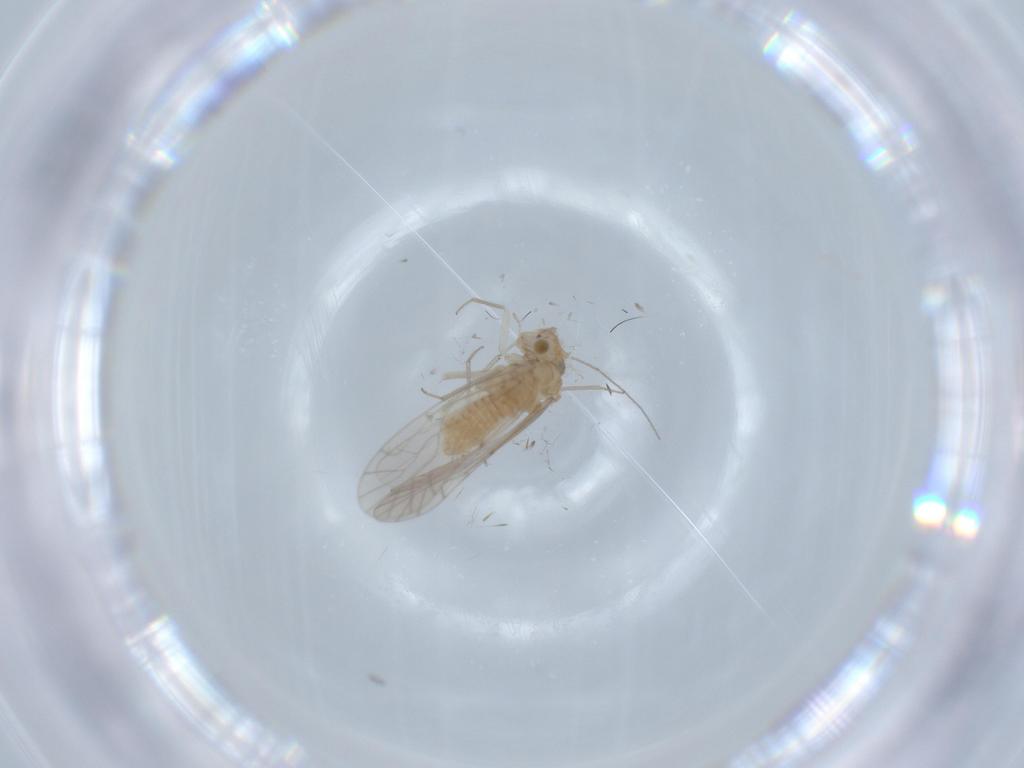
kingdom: Animalia
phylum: Arthropoda
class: Insecta
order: Psocodea
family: Lachesillidae
